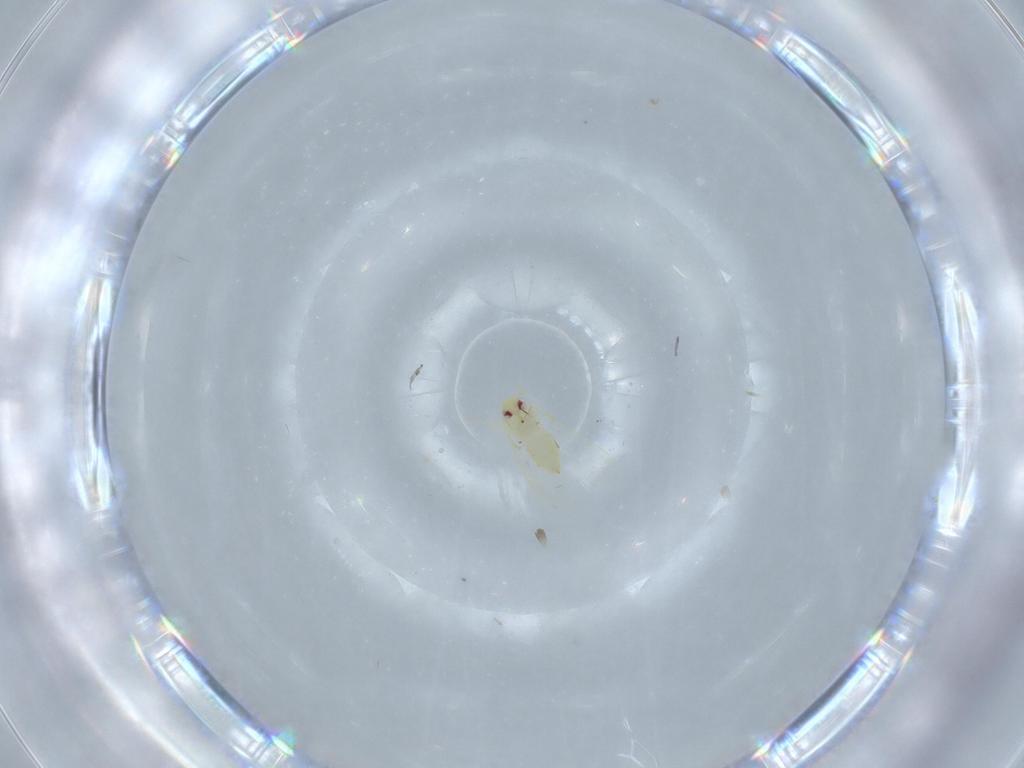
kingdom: Animalia
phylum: Arthropoda
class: Insecta
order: Hemiptera
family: Aleyrodidae
